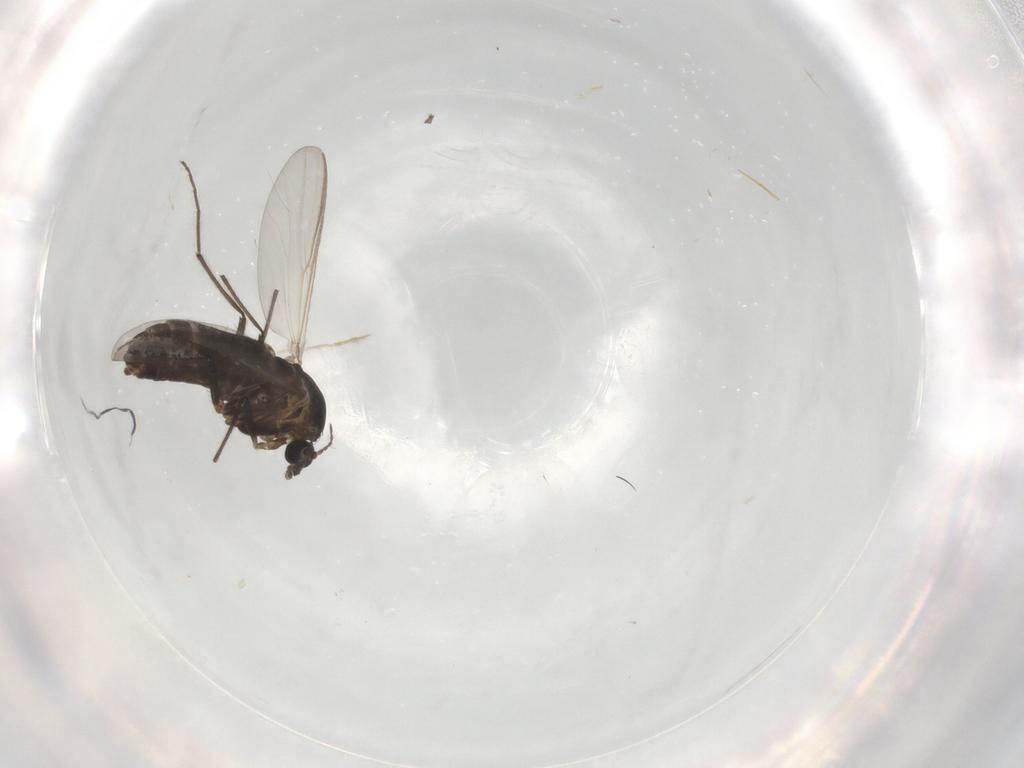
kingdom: Animalia
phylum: Arthropoda
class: Insecta
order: Diptera
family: Chironomidae
